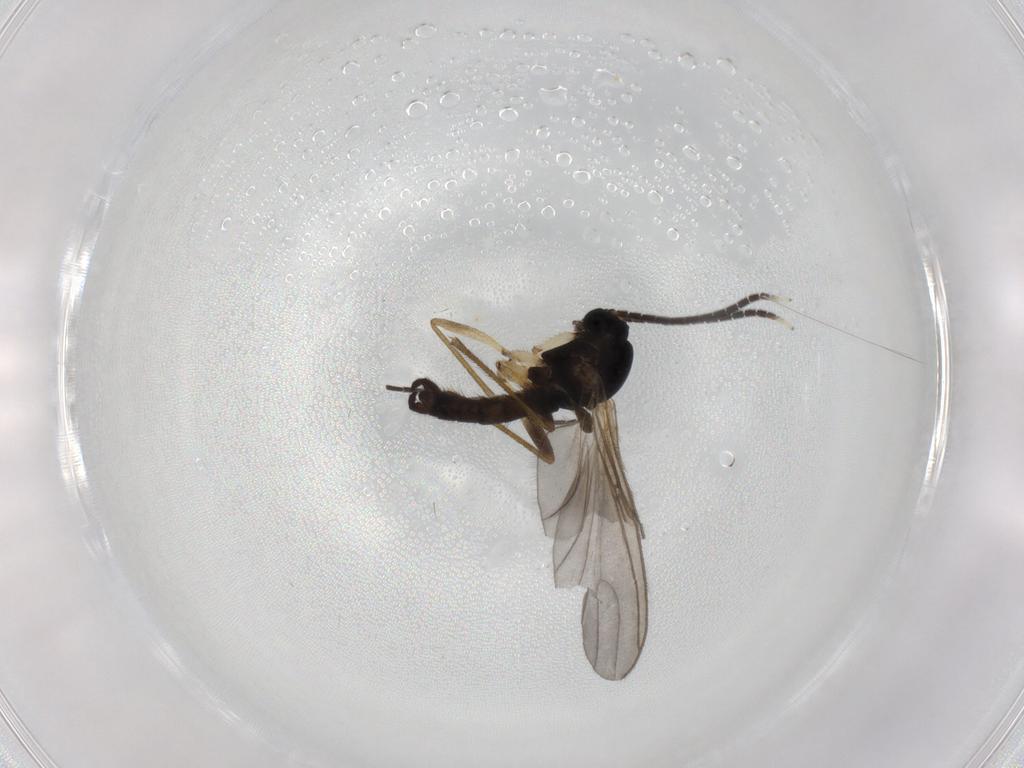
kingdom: Animalia
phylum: Arthropoda
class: Insecta
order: Diptera
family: Sciaridae
